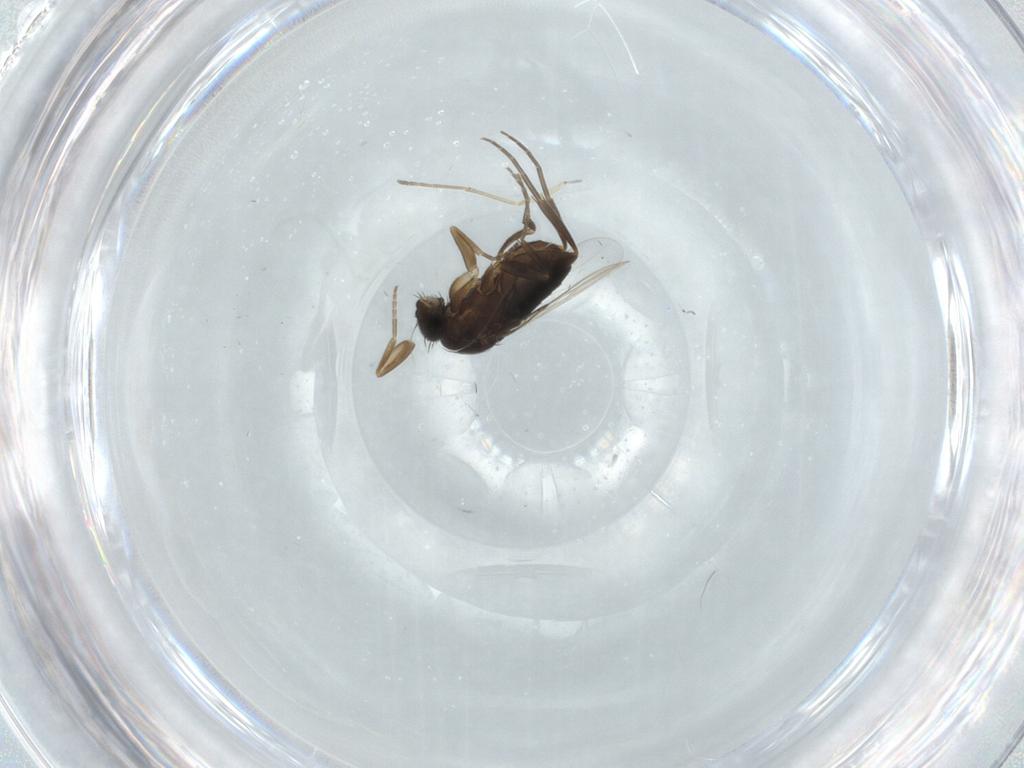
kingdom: Animalia
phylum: Arthropoda
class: Insecta
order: Diptera
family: Phoridae
